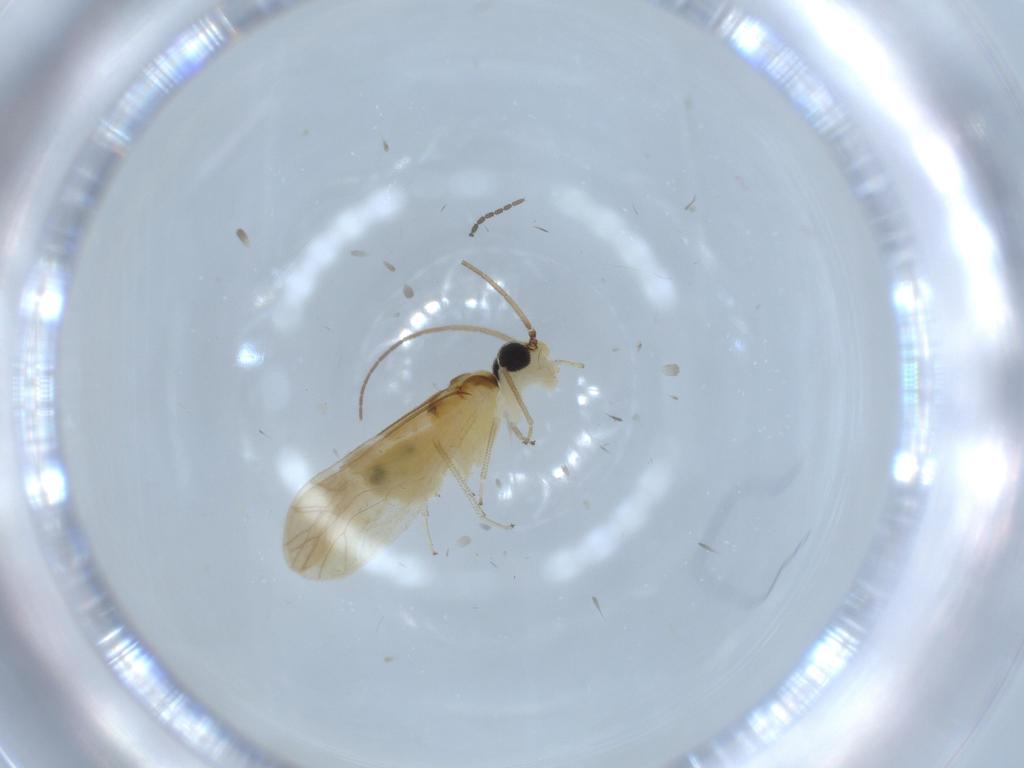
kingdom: Animalia
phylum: Arthropoda
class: Insecta
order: Psocodea
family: Caeciliusidae
